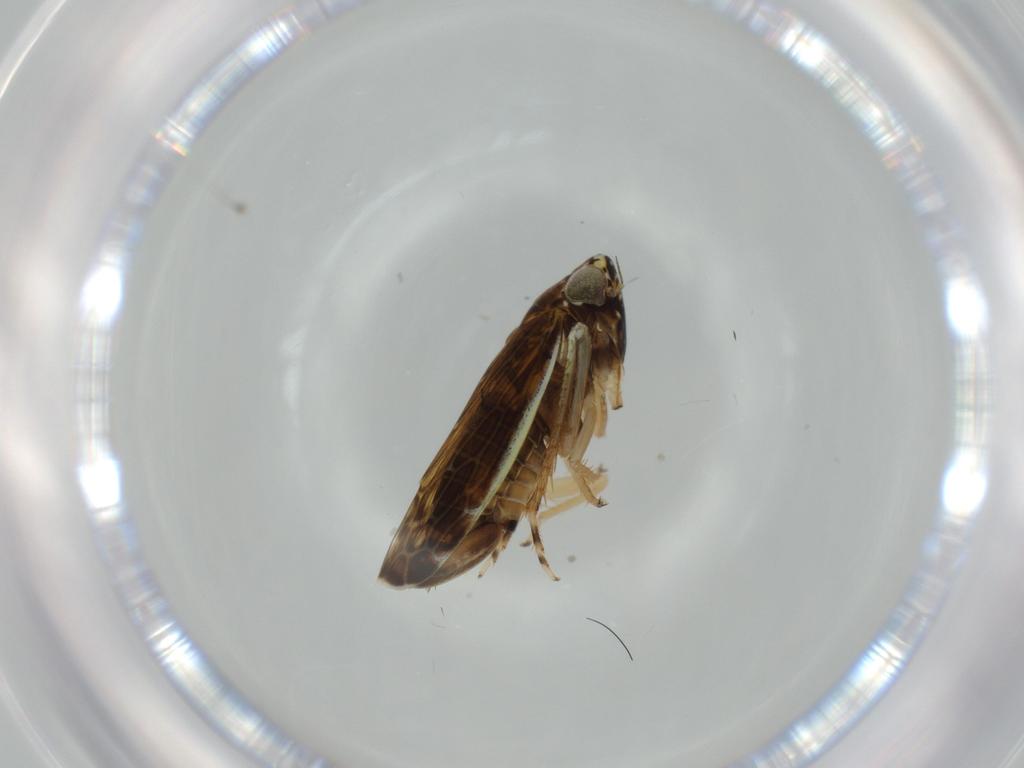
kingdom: Animalia
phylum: Arthropoda
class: Insecta
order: Hemiptera
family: Cicadellidae
